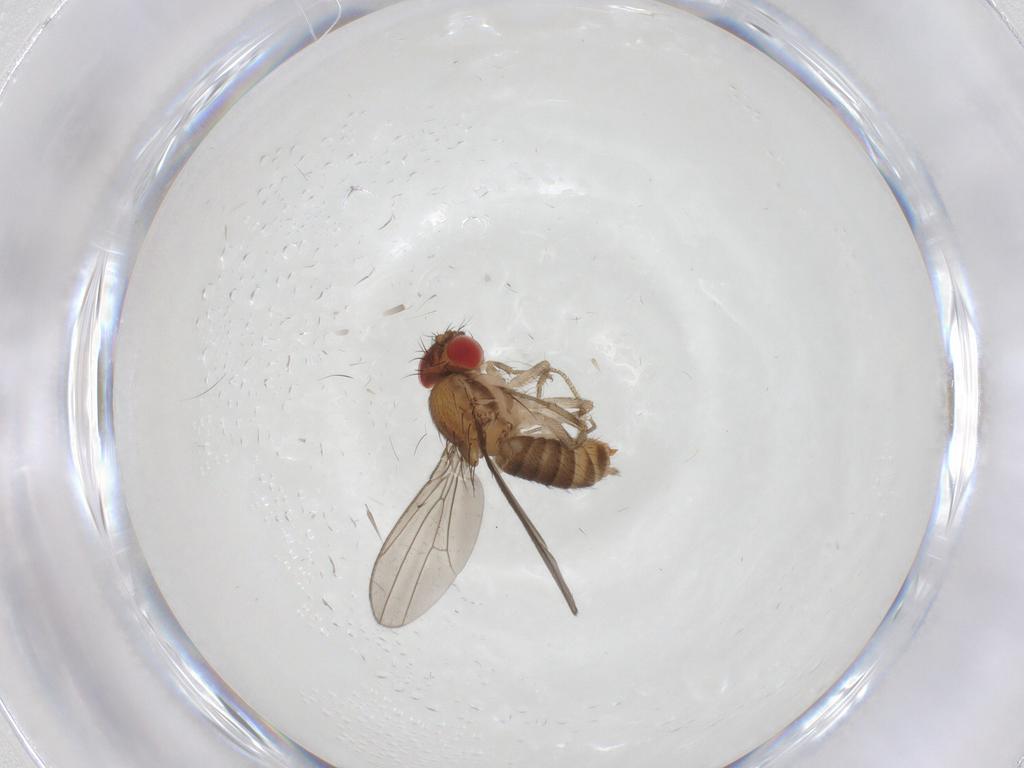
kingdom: Animalia
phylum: Arthropoda
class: Insecta
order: Diptera
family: Drosophilidae
